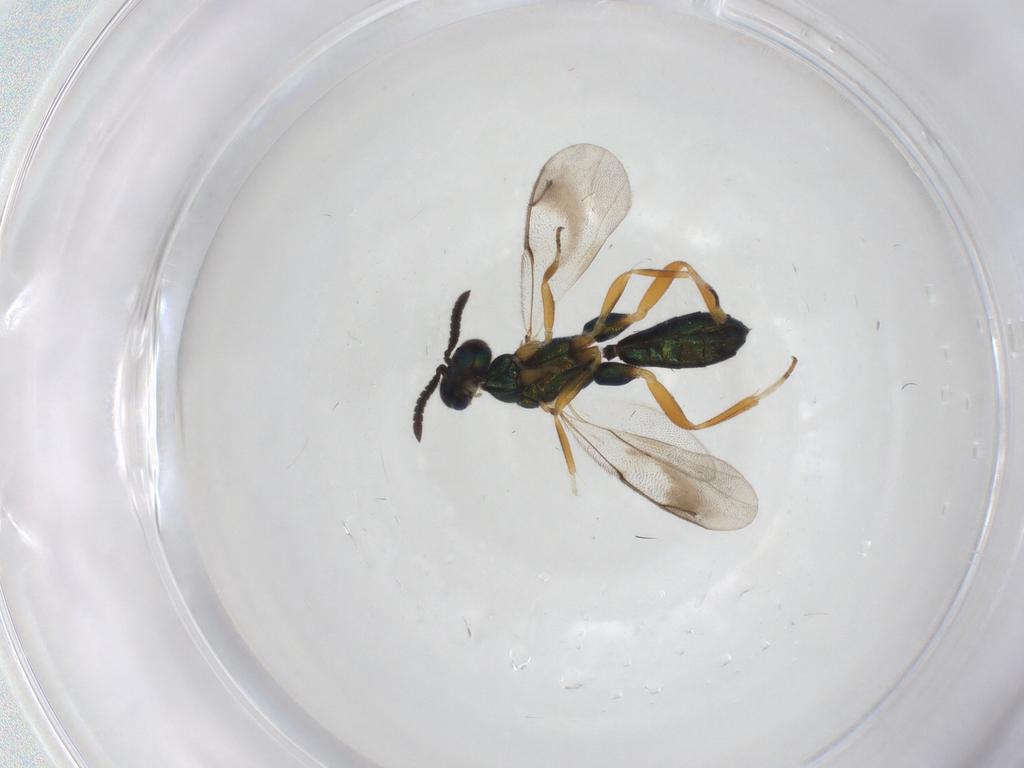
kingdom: Animalia
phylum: Arthropoda
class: Insecta
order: Hymenoptera
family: Cleonyminae
